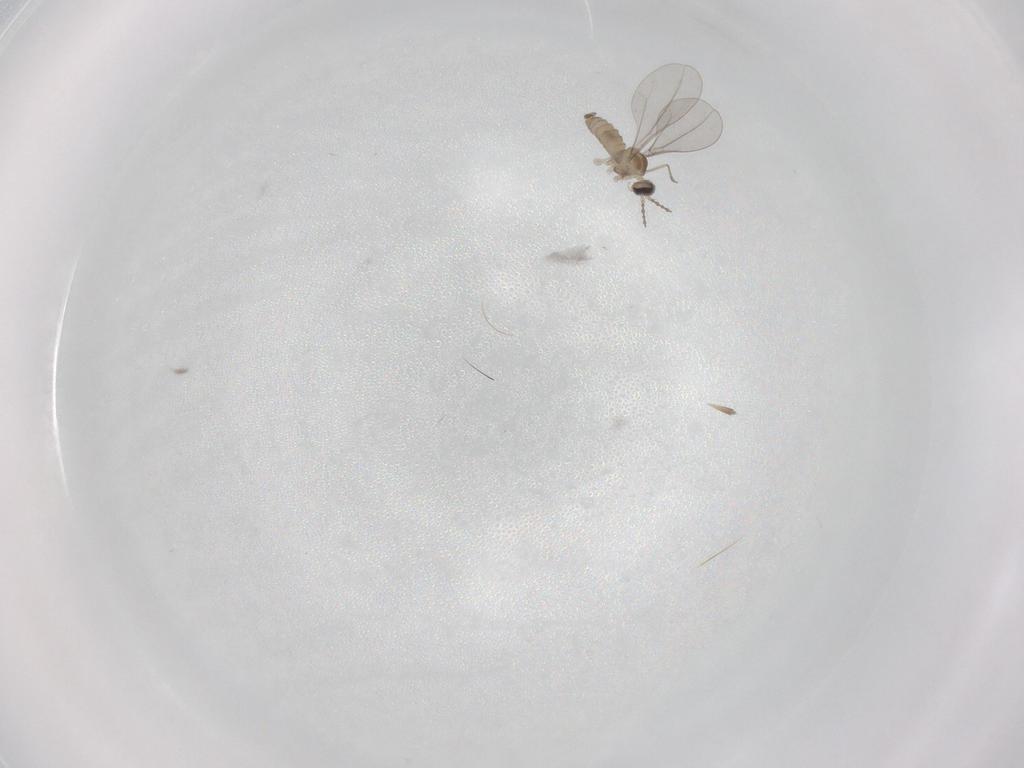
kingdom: Animalia
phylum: Arthropoda
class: Insecta
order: Diptera
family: Cecidomyiidae
